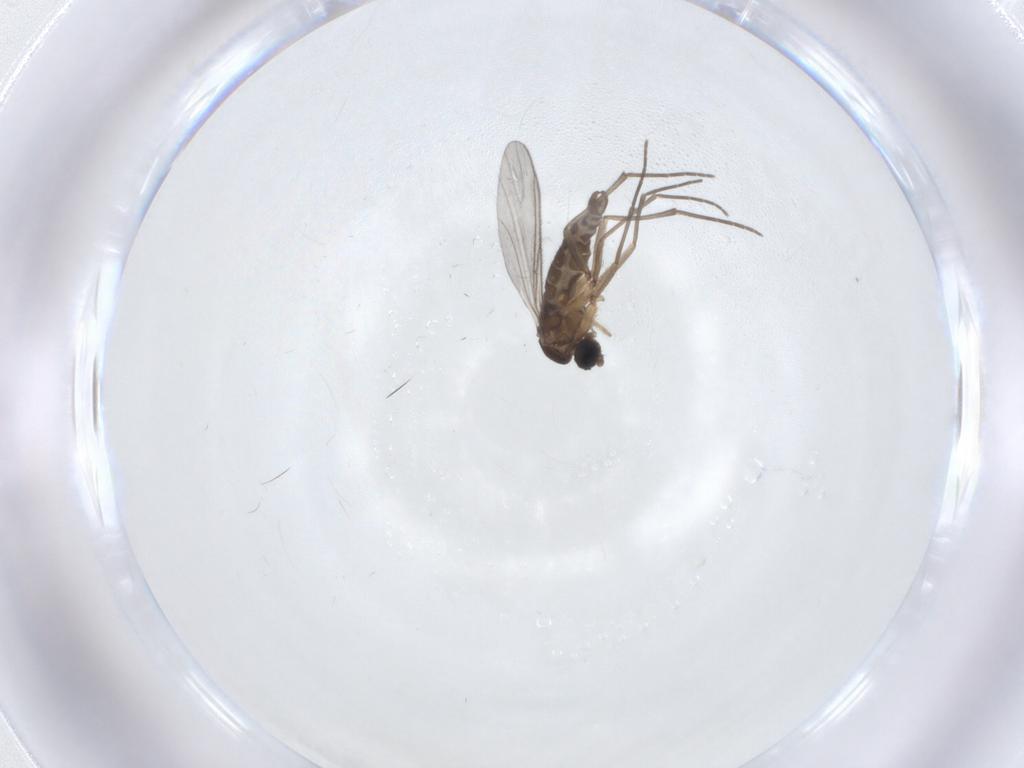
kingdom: Animalia
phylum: Arthropoda
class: Insecta
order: Diptera
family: Sciaridae
